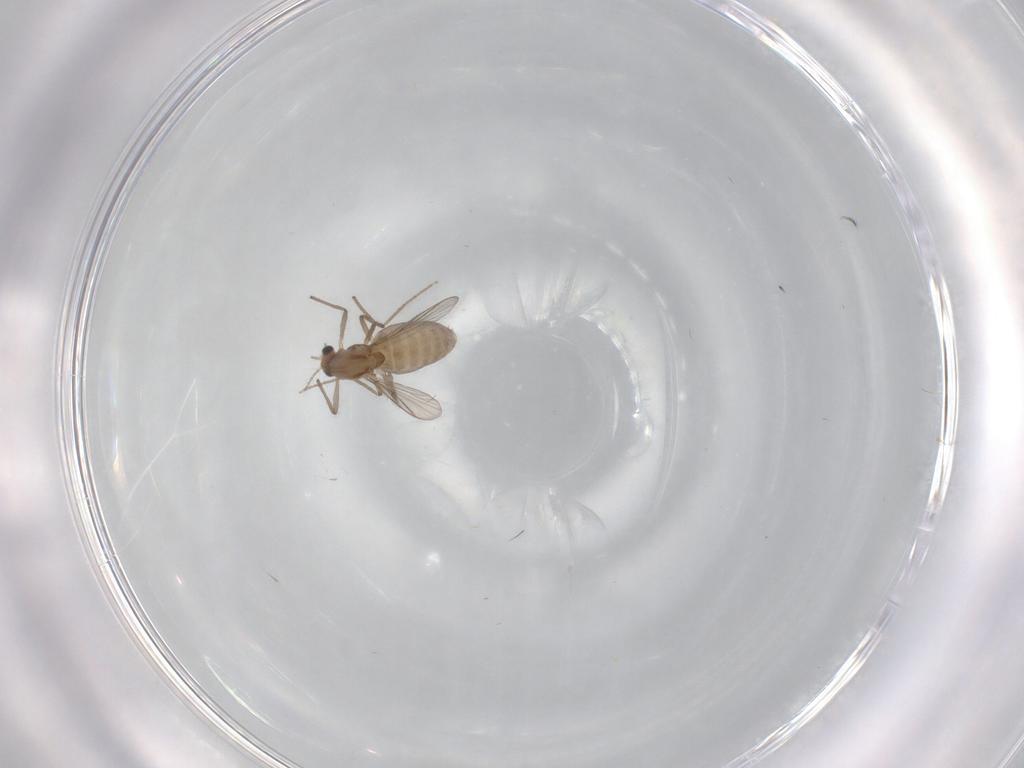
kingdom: Animalia
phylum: Arthropoda
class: Insecta
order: Diptera
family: Chironomidae
